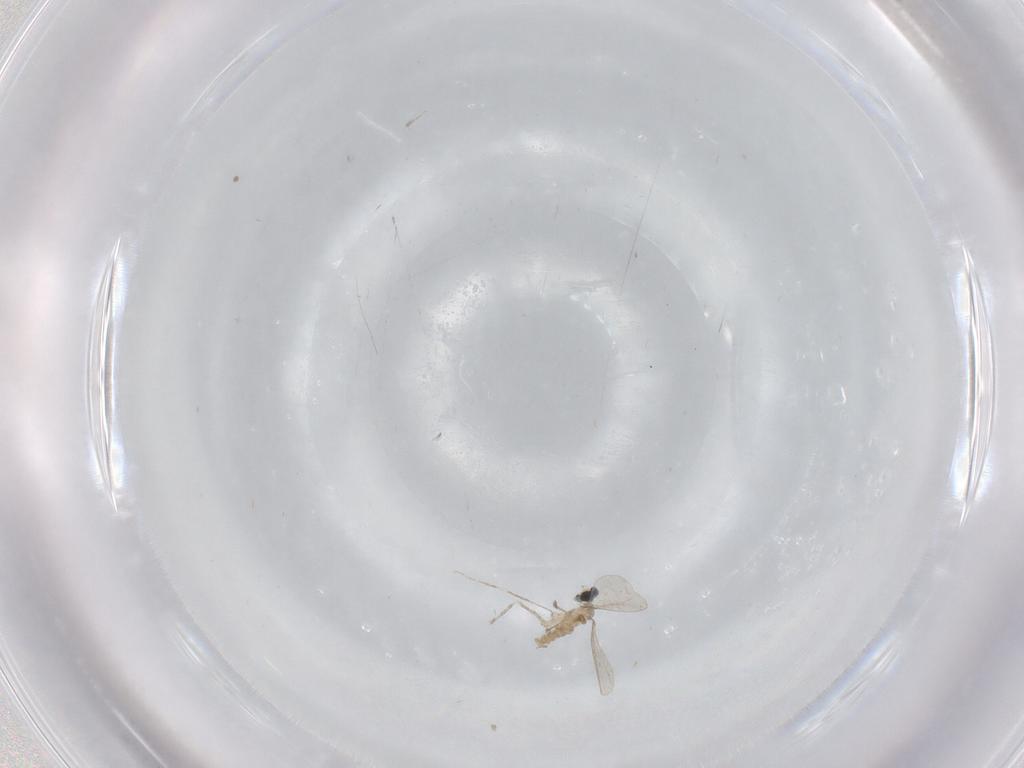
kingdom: Animalia
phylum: Arthropoda
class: Insecta
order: Diptera
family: Cecidomyiidae
